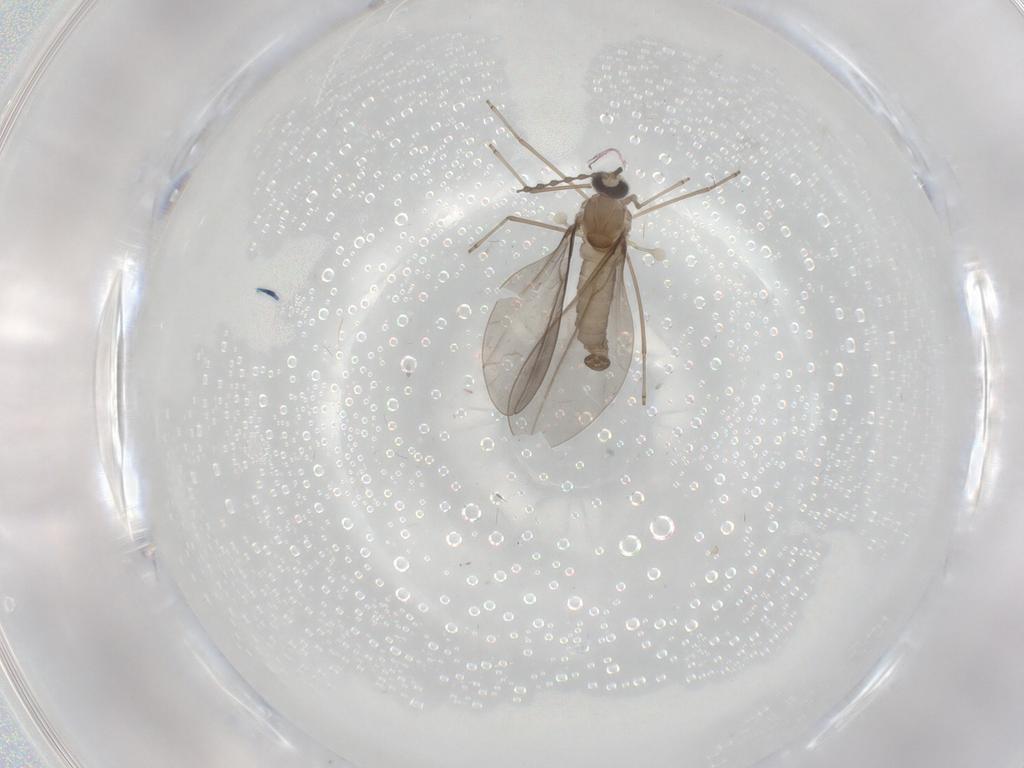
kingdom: Animalia
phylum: Arthropoda
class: Insecta
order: Diptera
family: Cecidomyiidae
